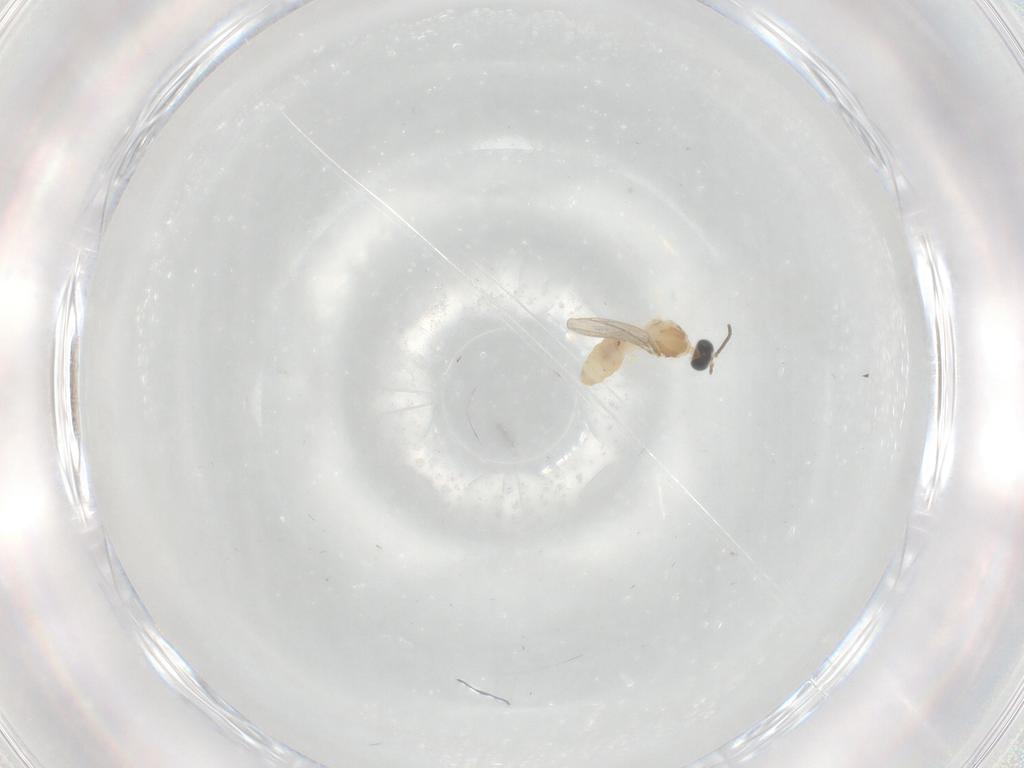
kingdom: Animalia
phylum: Arthropoda
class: Insecta
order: Diptera
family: Cecidomyiidae
